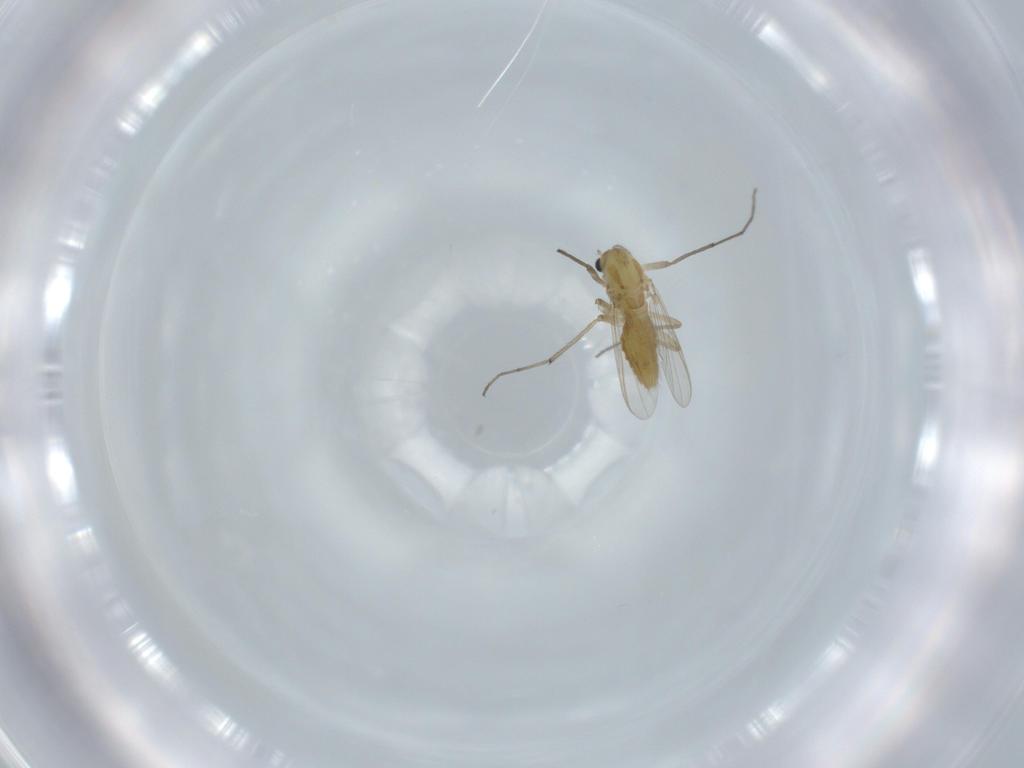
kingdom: Animalia
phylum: Arthropoda
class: Insecta
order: Diptera
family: Chironomidae
